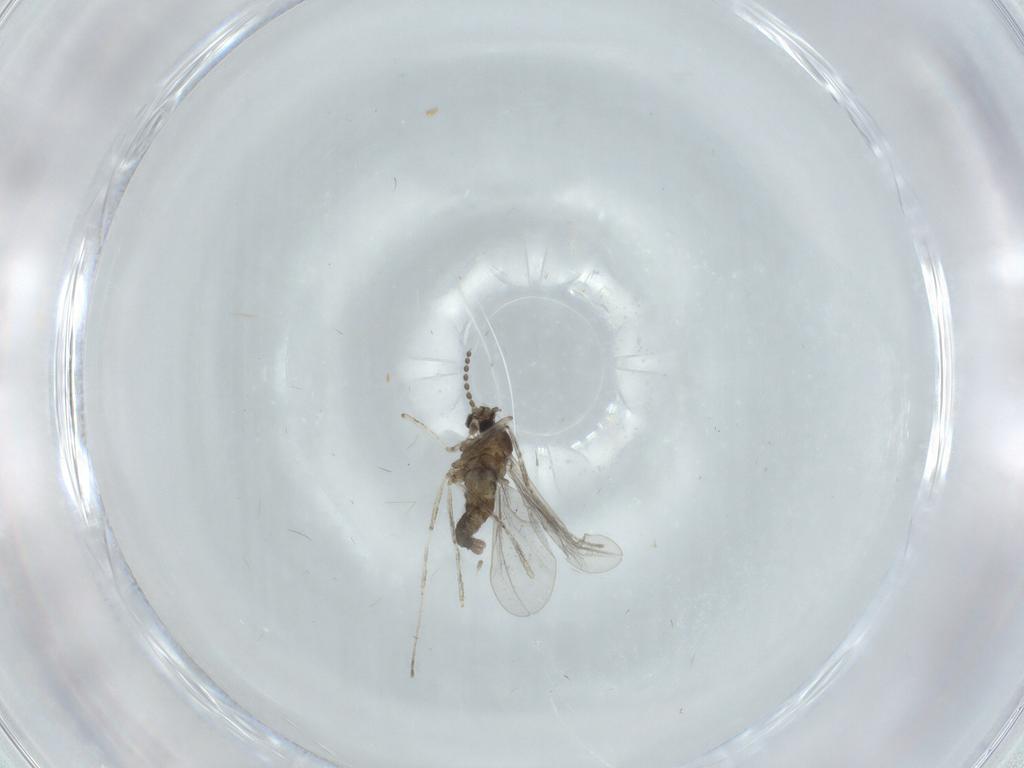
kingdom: Animalia
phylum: Arthropoda
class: Insecta
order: Diptera
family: Cecidomyiidae
